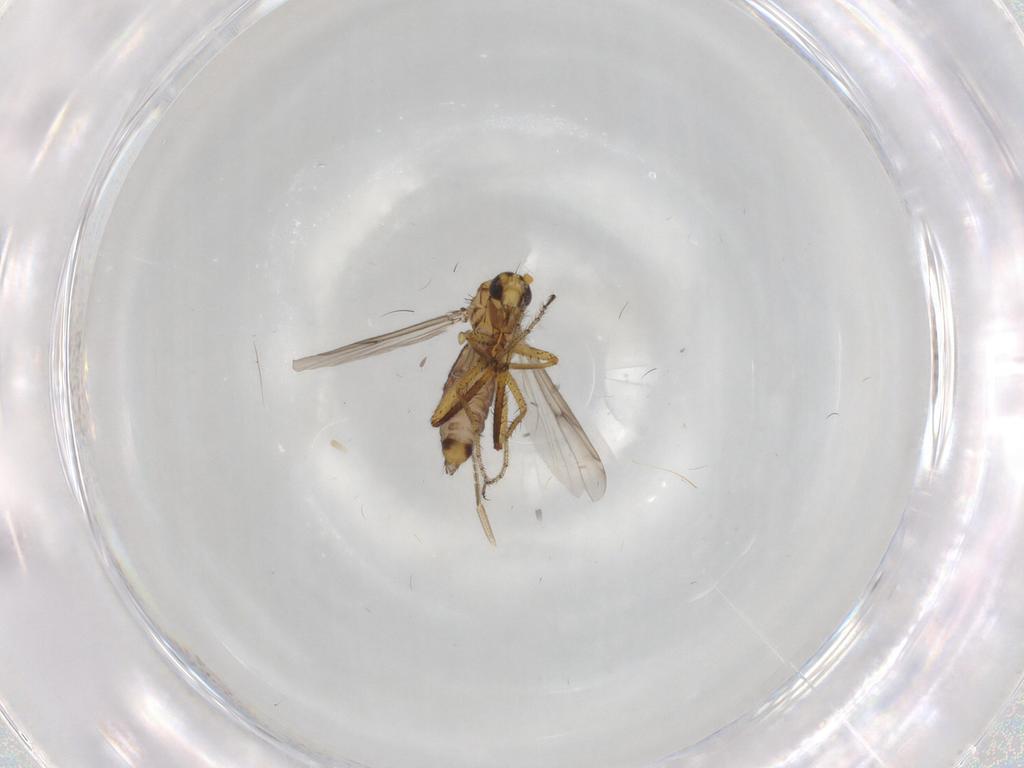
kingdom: Animalia
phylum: Arthropoda
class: Insecta
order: Diptera
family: Ceratopogonidae
